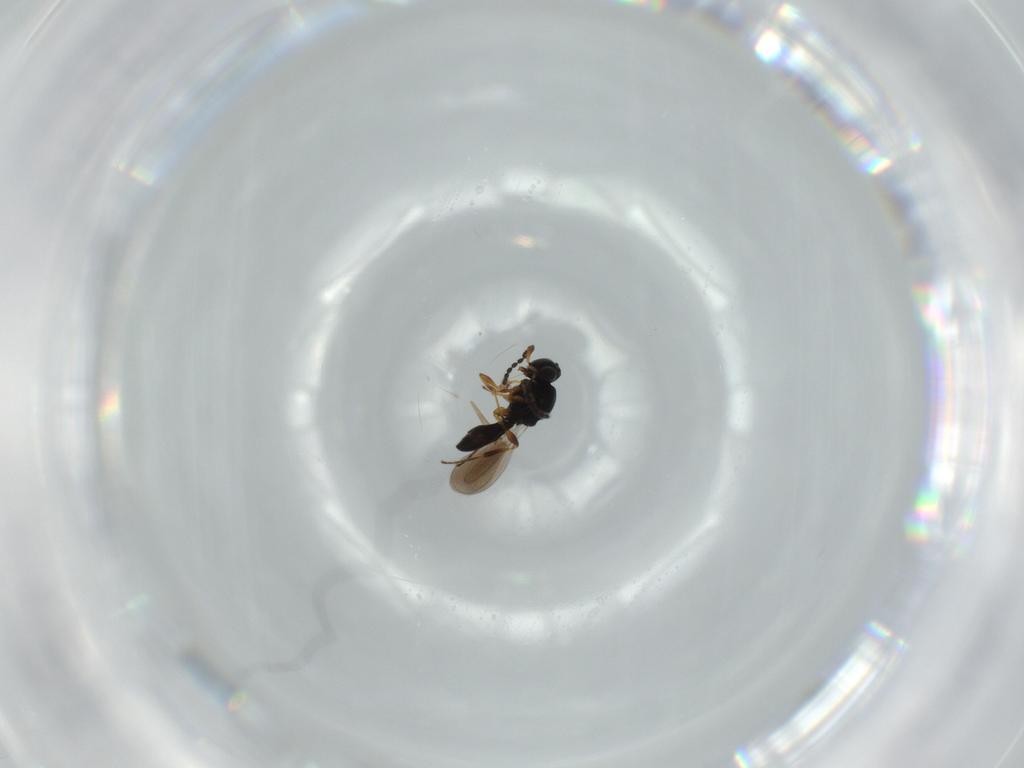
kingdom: Animalia
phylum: Arthropoda
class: Insecta
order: Hymenoptera
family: Platygastridae
